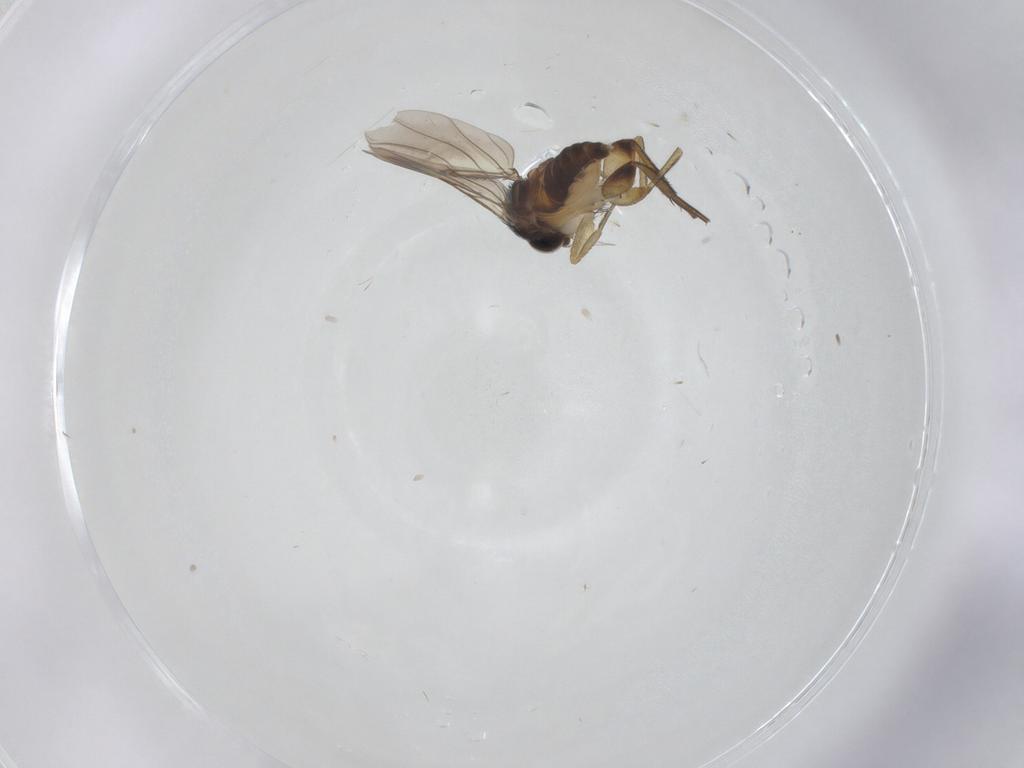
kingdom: Animalia
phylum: Arthropoda
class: Insecta
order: Diptera
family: Phoridae
